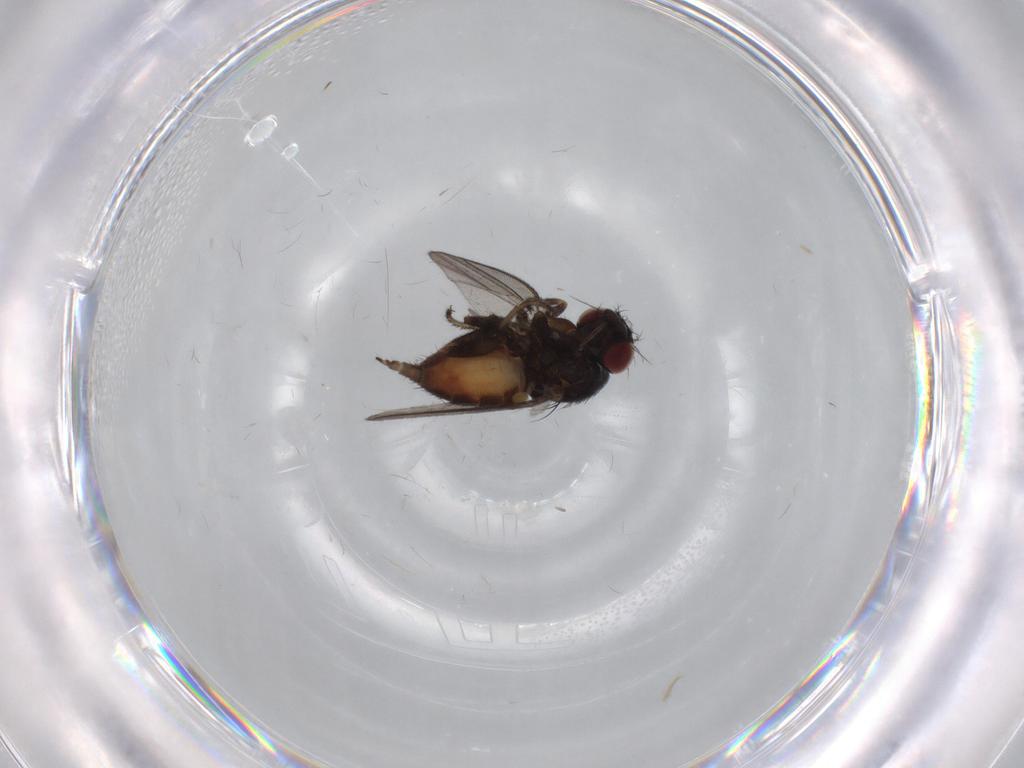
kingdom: Animalia
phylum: Arthropoda
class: Insecta
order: Diptera
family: Milichiidae
